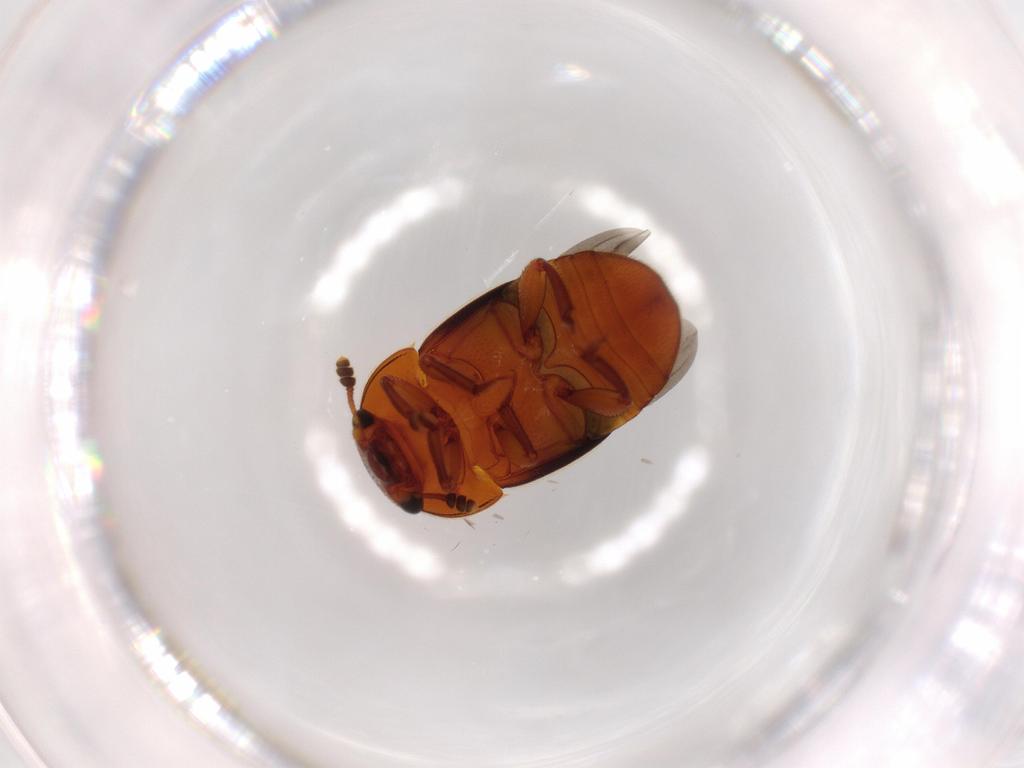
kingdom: Animalia
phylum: Arthropoda
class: Insecta
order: Coleoptera
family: Nitidulidae
